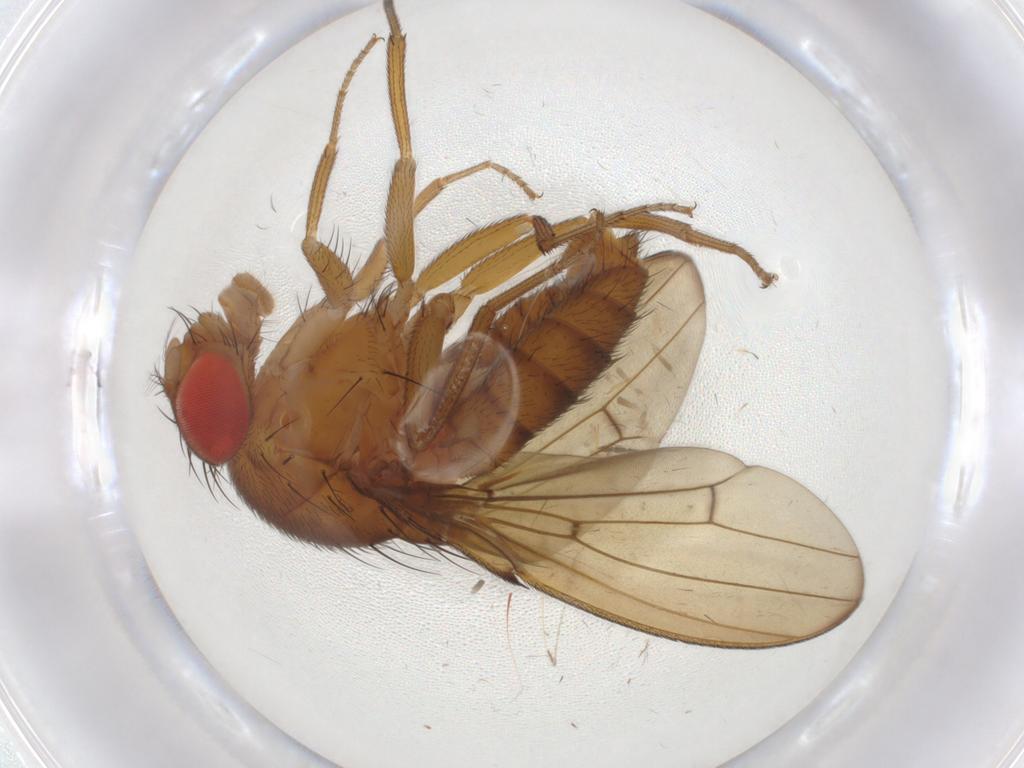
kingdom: Animalia
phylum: Arthropoda
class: Insecta
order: Diptera
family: Drosophilidae
